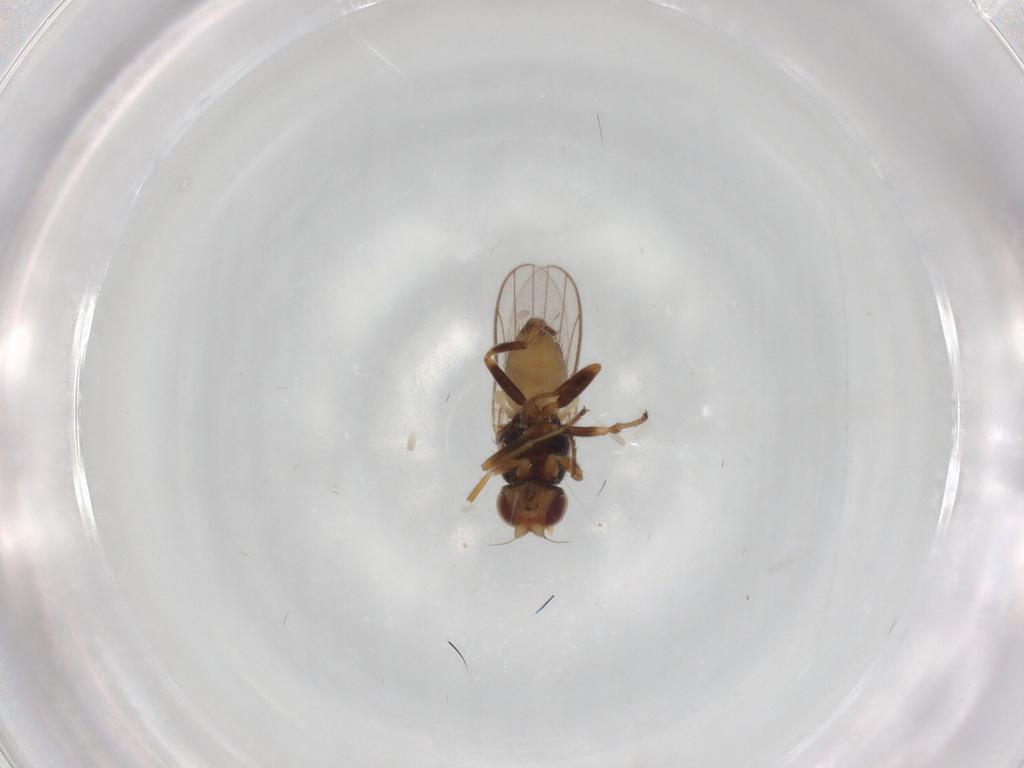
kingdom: Animalia
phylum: Arthropoda
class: Insecta
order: Diptera
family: Chloropidae
